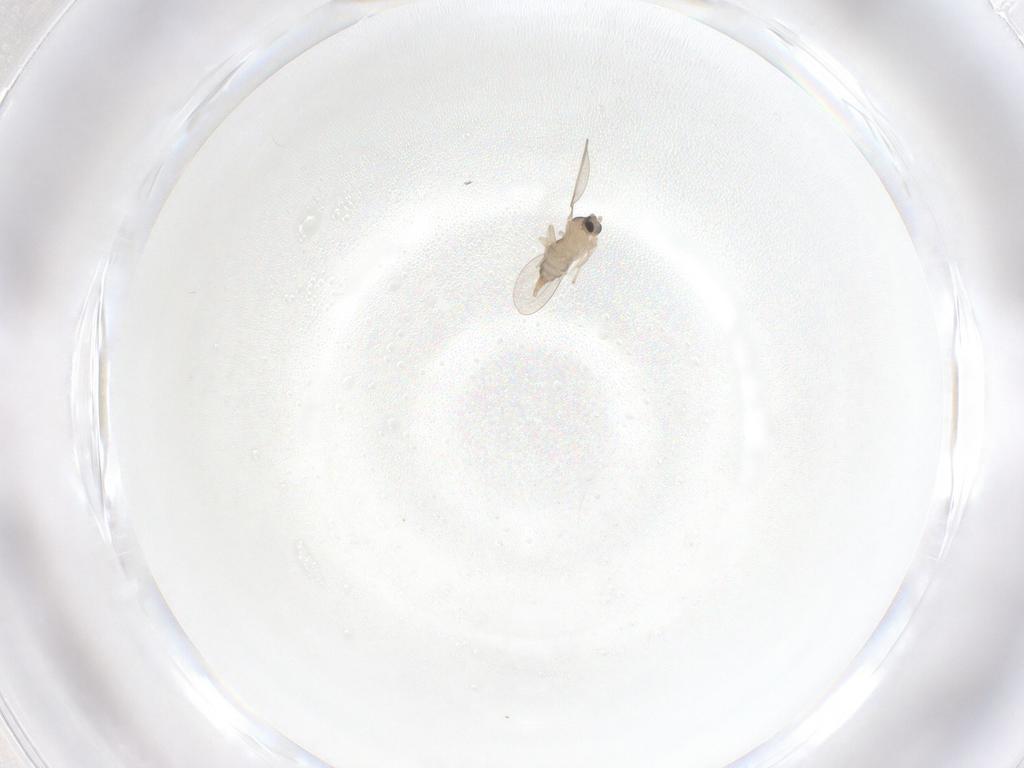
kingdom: Animalia
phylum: Arthropoda
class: Insecta
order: Diptera
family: Cecidomyiidae
